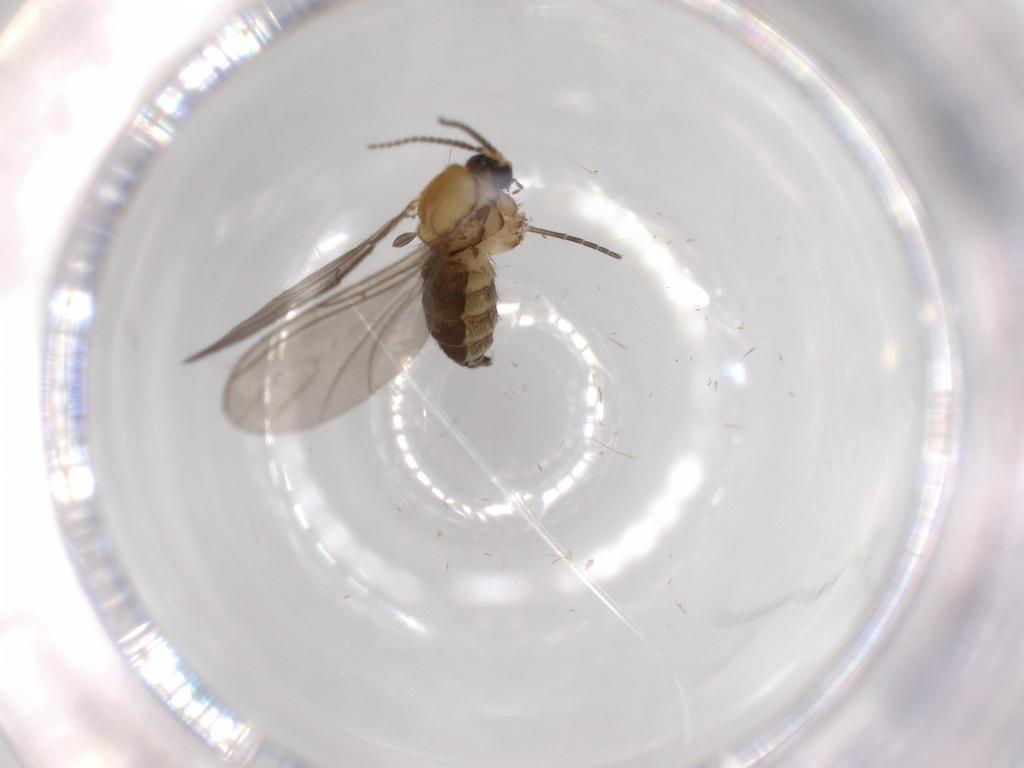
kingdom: Animalia
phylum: Arthropoda
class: Insecta
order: Diptera
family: Sciaridae
